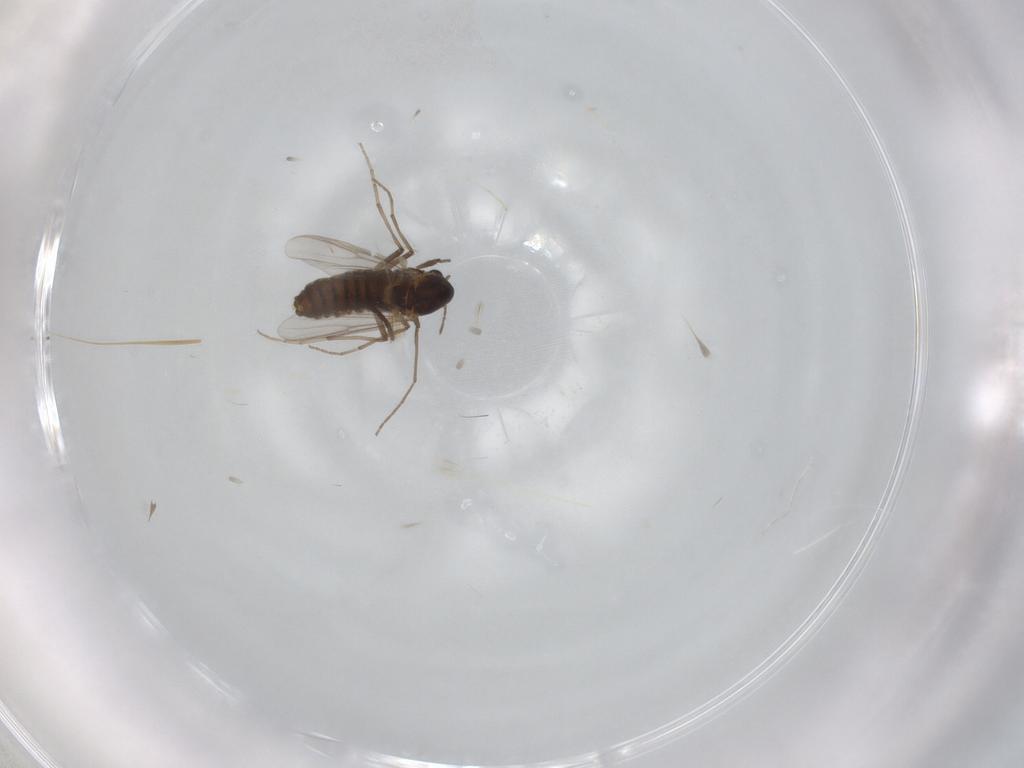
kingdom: Animalia
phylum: Arthropoda
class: Insecta
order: Diptera
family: Chironomidae
